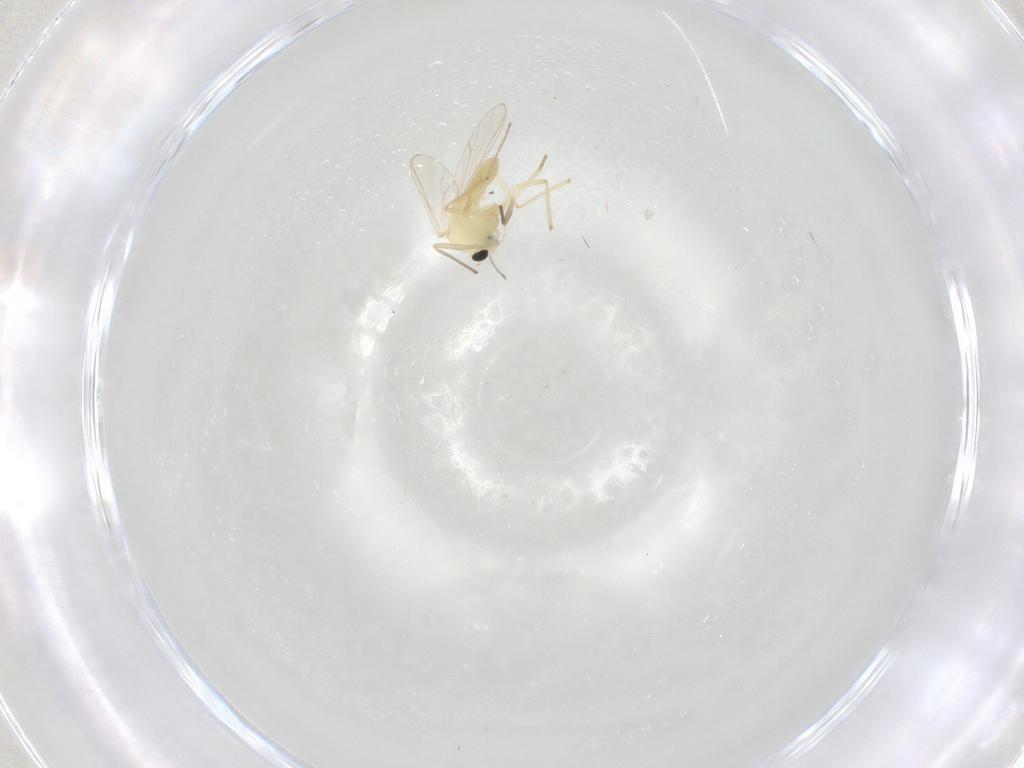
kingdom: Animalia
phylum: Arthropoda
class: Insecta
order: Diptera
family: Chironomidae
